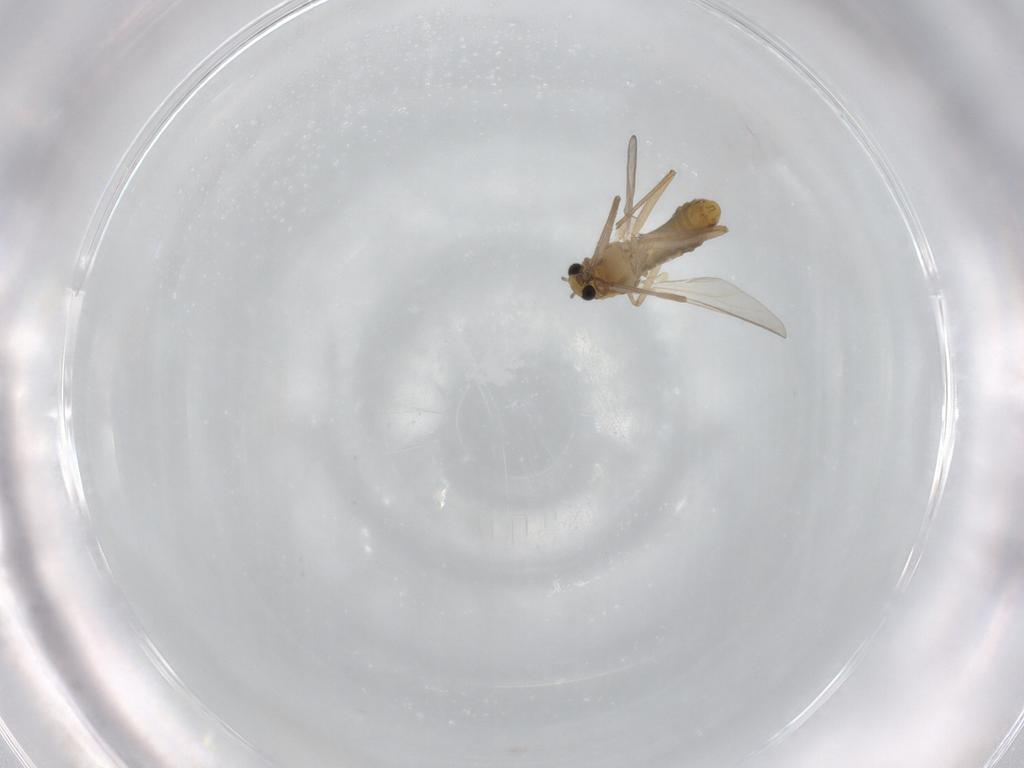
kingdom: Animalia
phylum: Arthropoda
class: Insecta
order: Diptera
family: Chironomidae
